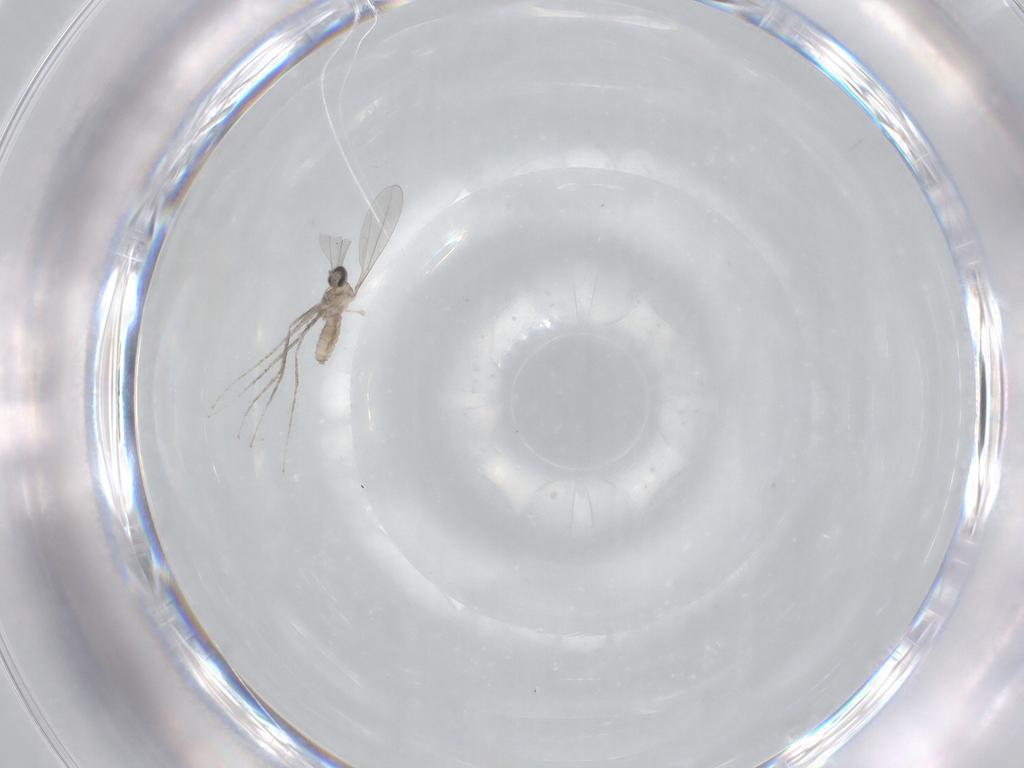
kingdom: Animalia
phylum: Arthropoda
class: Insecta
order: Diptera
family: Cecidomyiidae
